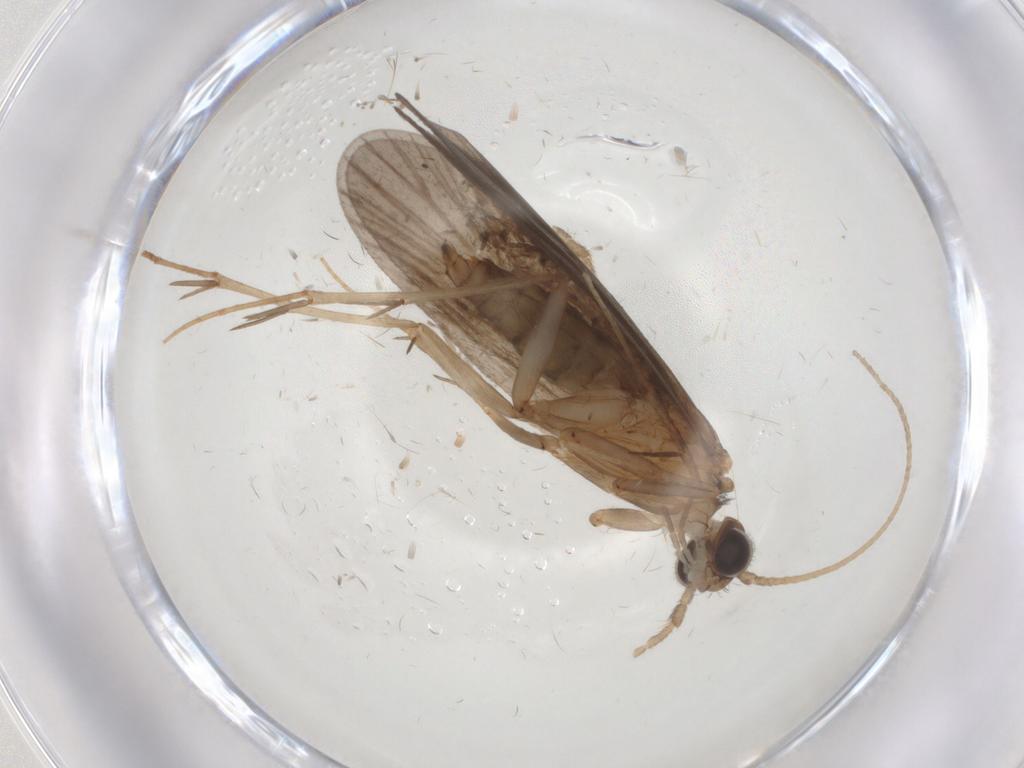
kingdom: Animalia
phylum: Arthropoda
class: Insecta
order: Trichoptera
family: Philopotamidae
